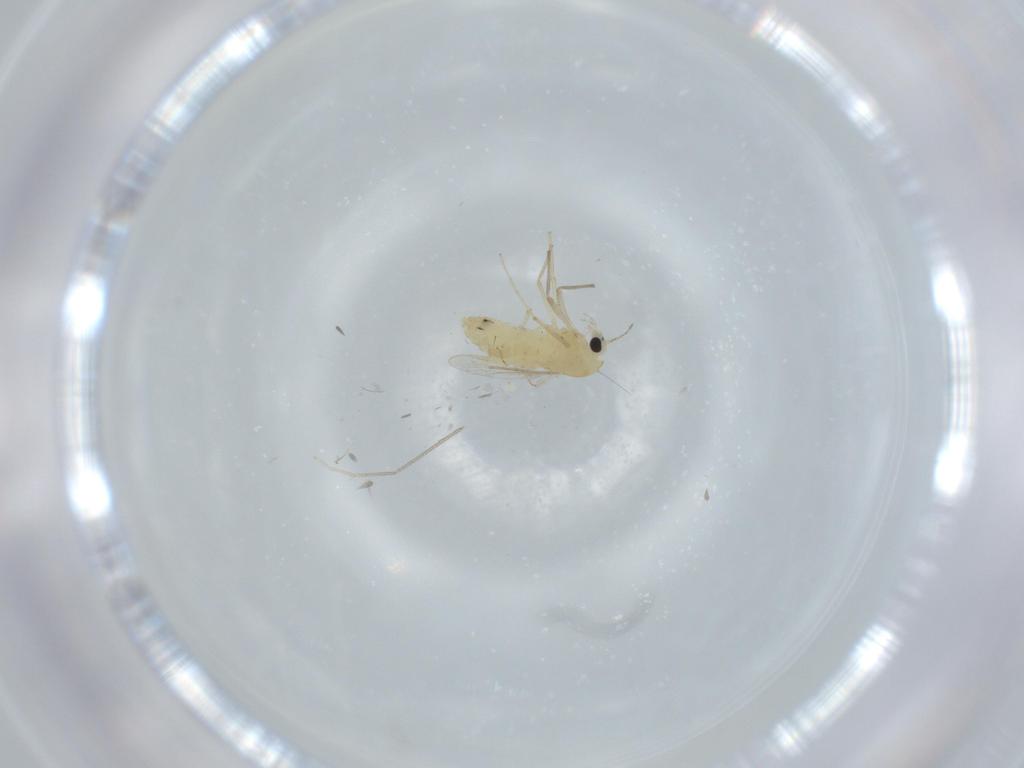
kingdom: Animalia
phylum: Arthropoda
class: Insecta
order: Diptera
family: Chironomidae
